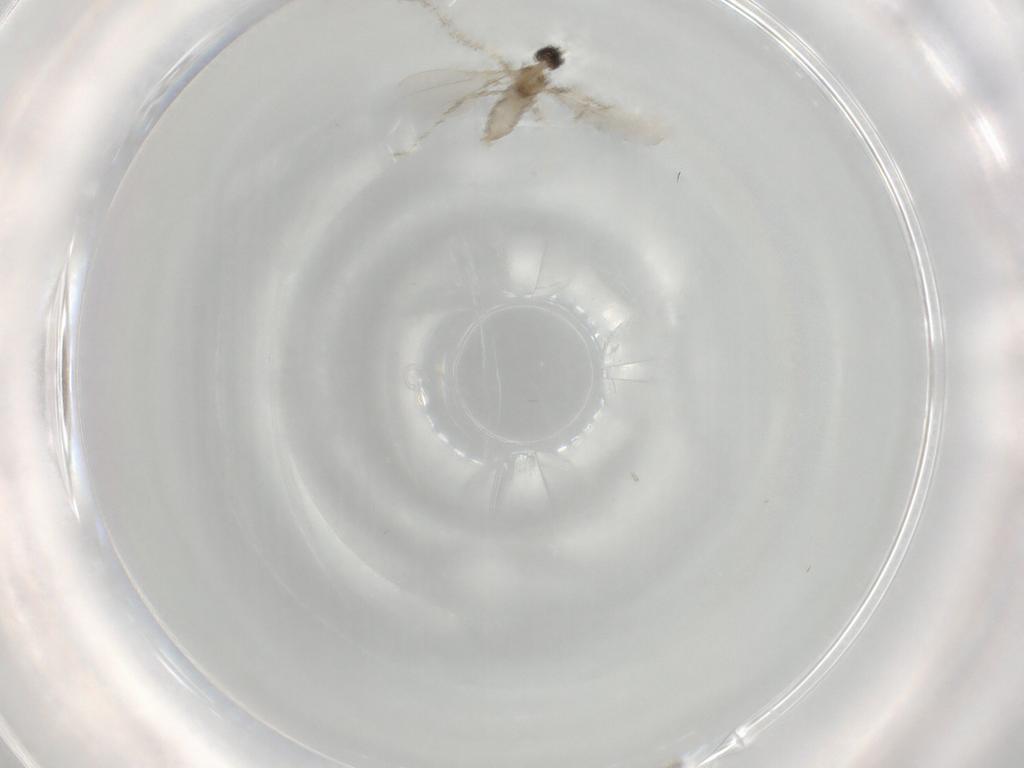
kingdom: Animalia
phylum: Arthropoda
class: Insecta
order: Diptera
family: Cecidomyiidae
